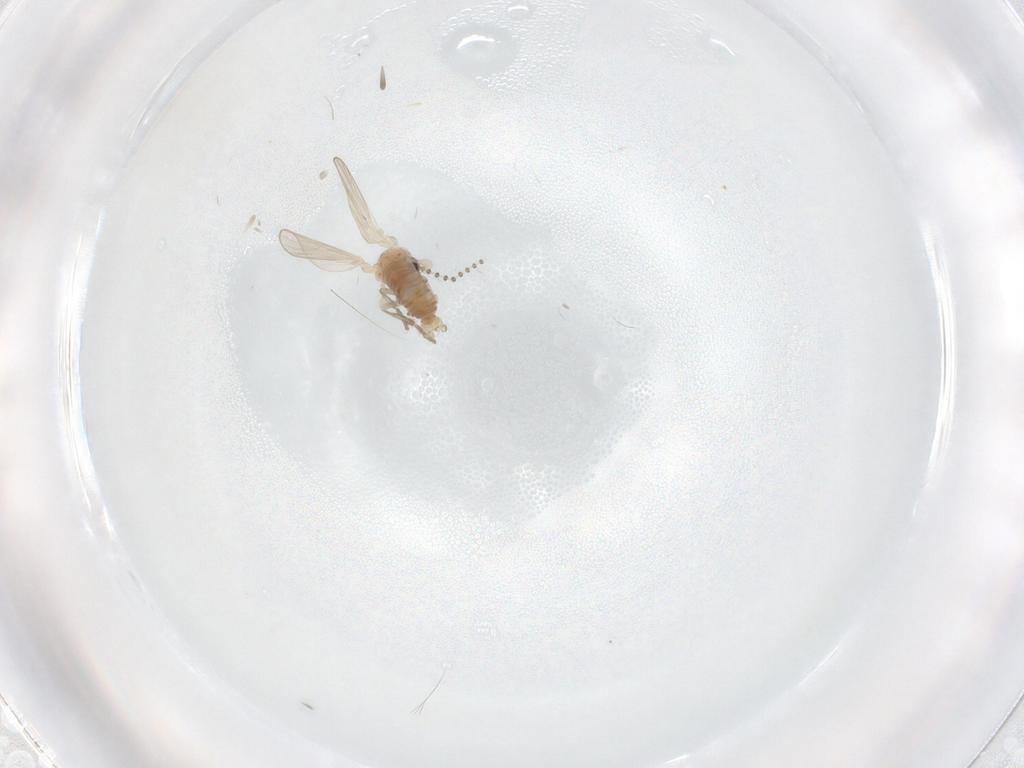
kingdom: Animalia
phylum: Arthropoda
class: Insecta
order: Diptera
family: Psychodidae
